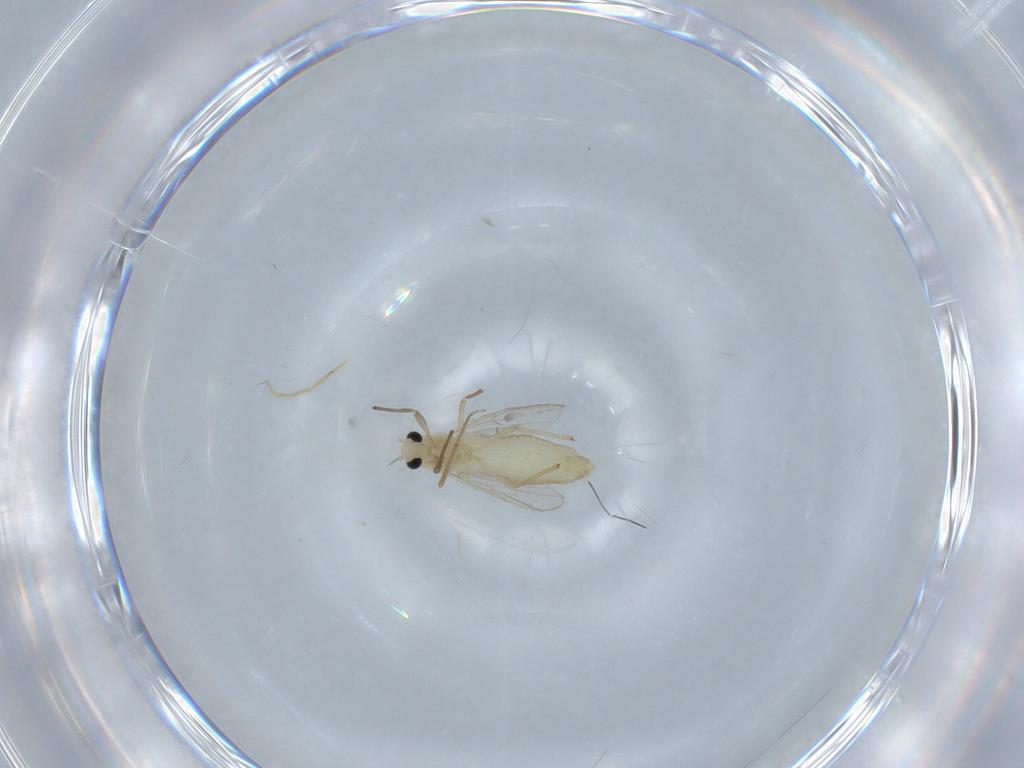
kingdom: Animalia
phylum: Arthropoda
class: Insecta
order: Diptera
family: Chironomidae
